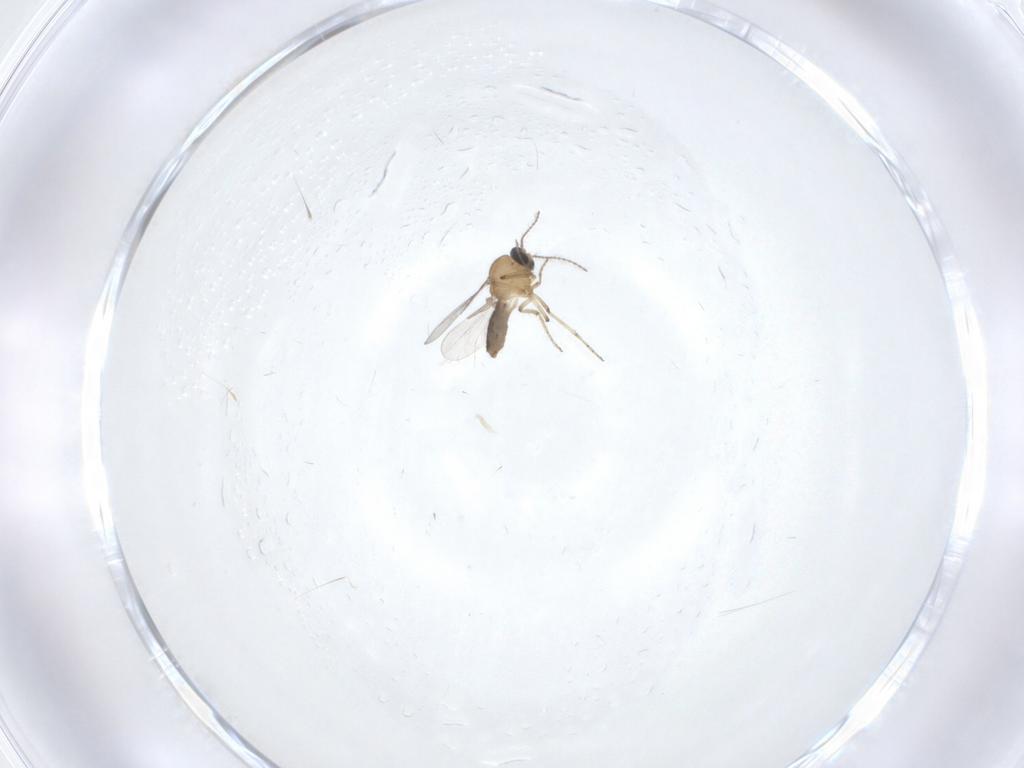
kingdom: Animalia
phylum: Arthropoda
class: Insecta
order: Diptera
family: Ceratopogonidae
